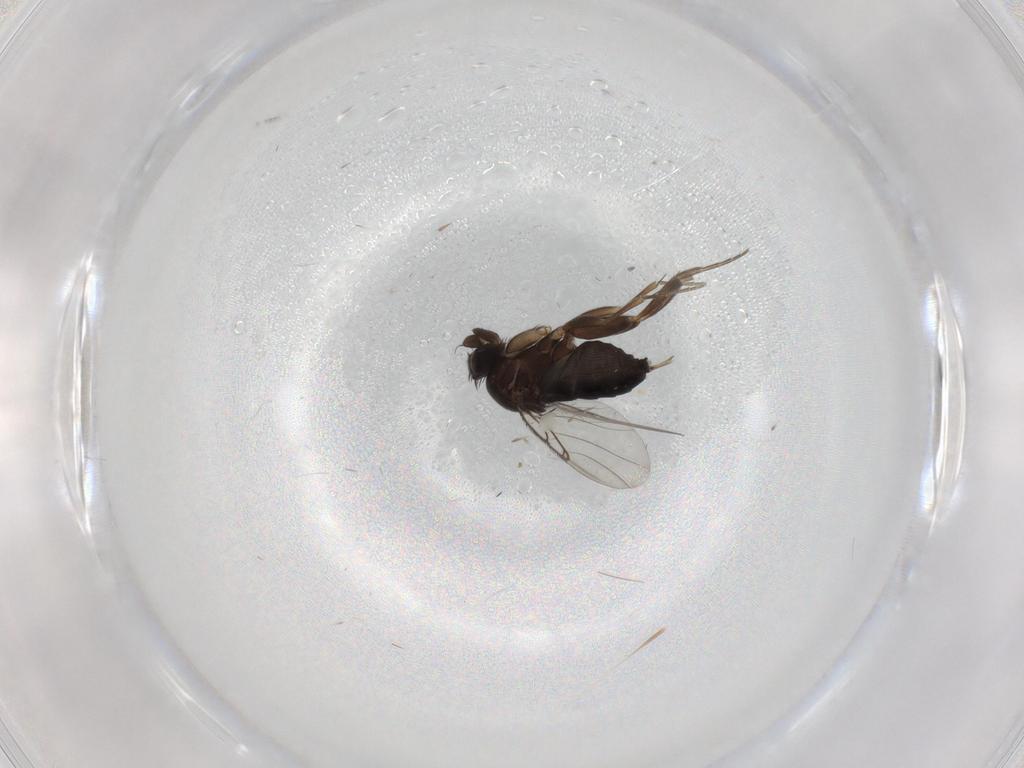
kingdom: Animalia
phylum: Arthropoda
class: Insecta
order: Diptera
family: Phoridae
